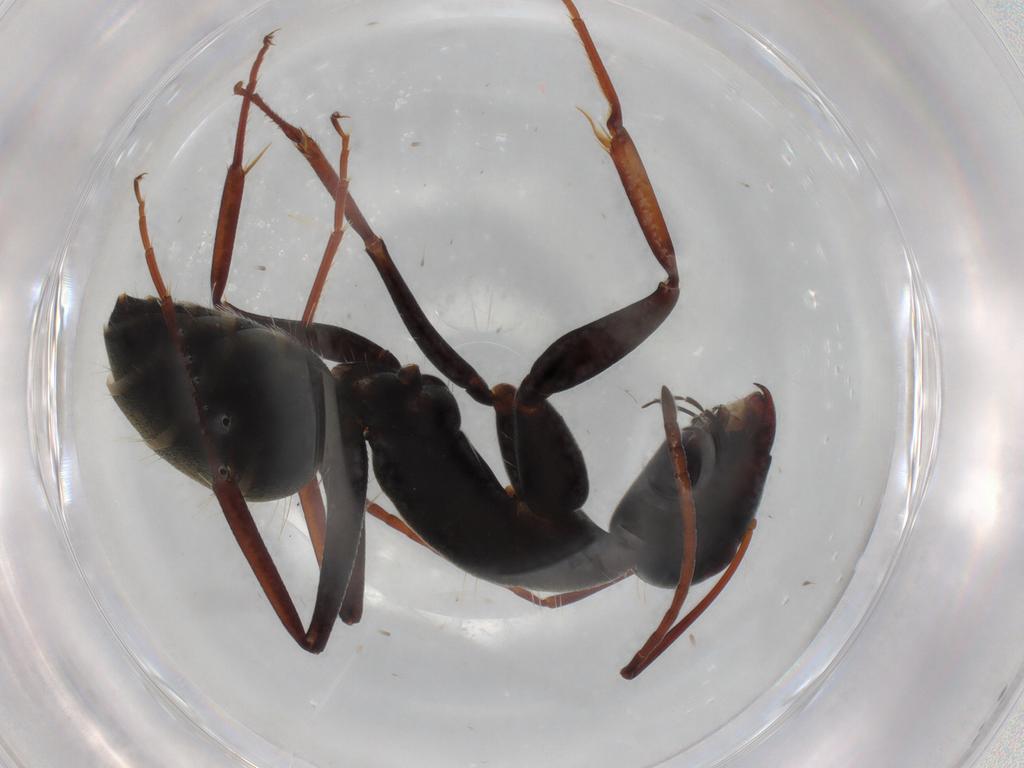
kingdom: Animalia
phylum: Arthropoda
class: Insecta
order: Hymenoptera
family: Formicidae
